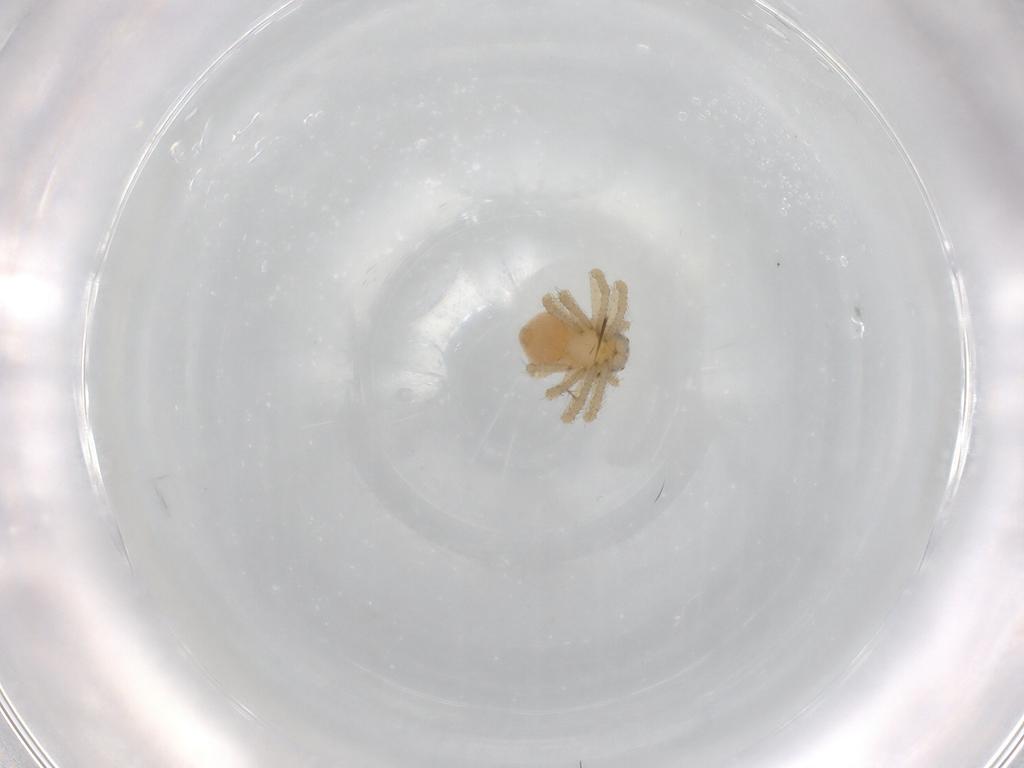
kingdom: Animalia
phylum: Arthropoda
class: Arachnida
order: Araneae
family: Thomisidae
